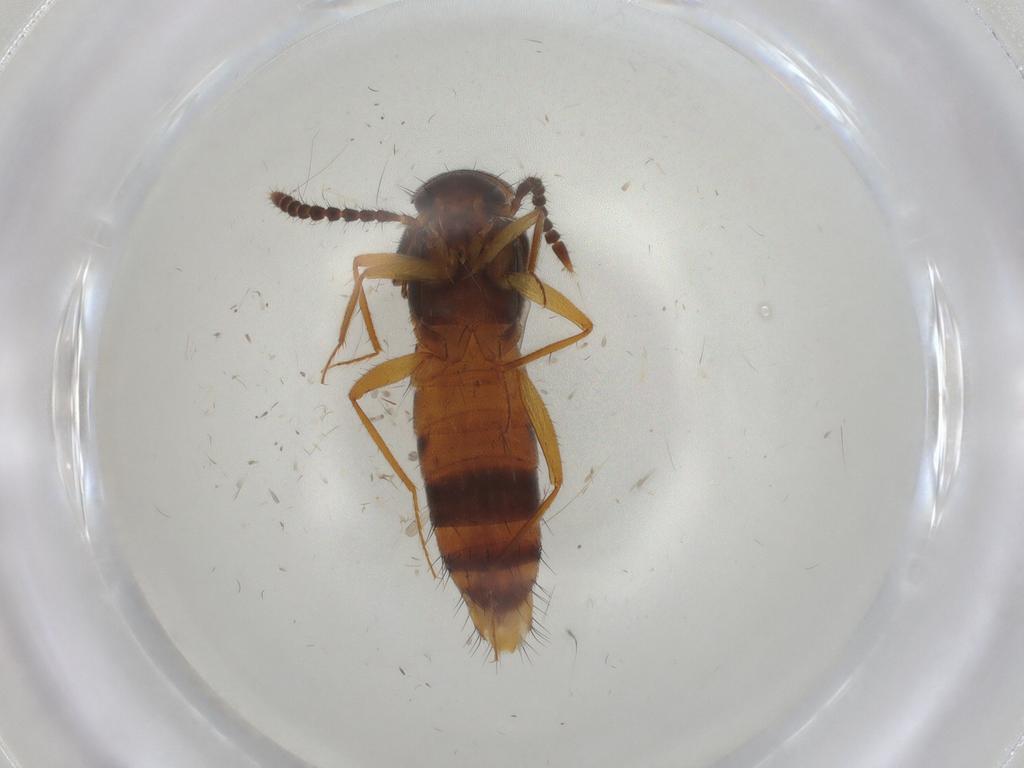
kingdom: Animalia
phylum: Arthropoda
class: Insecta
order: Coleoptera
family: Staphylinidae
